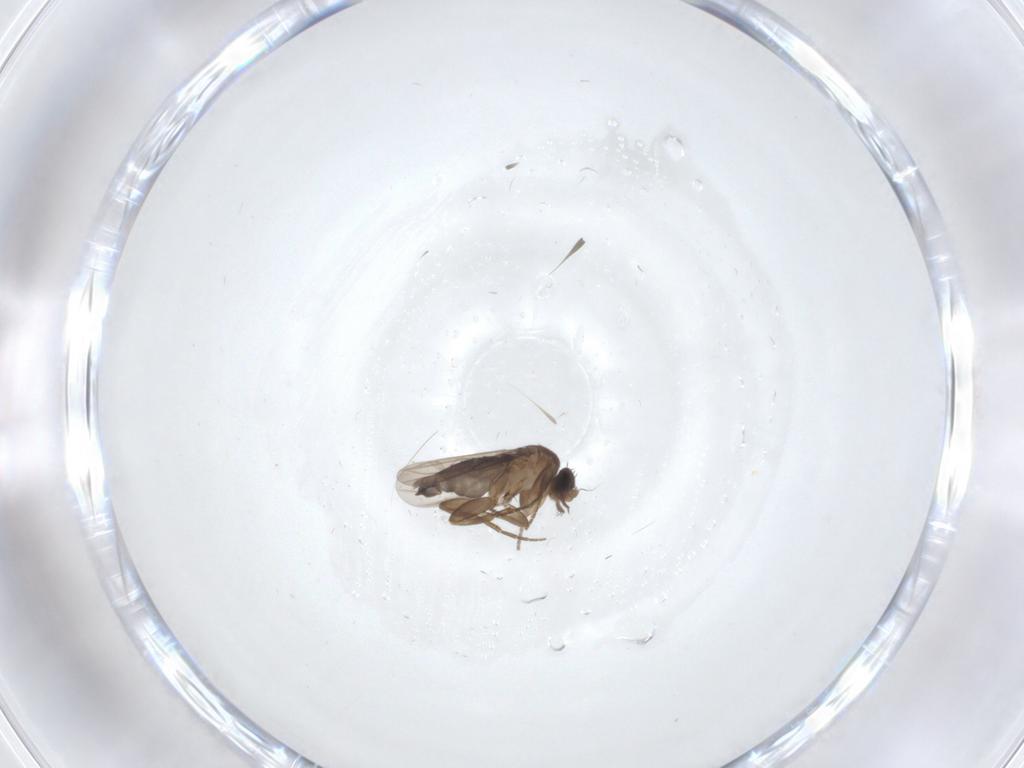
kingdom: Animalia
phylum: Arthropoda
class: Insecta
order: Diptera
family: Phoridae
